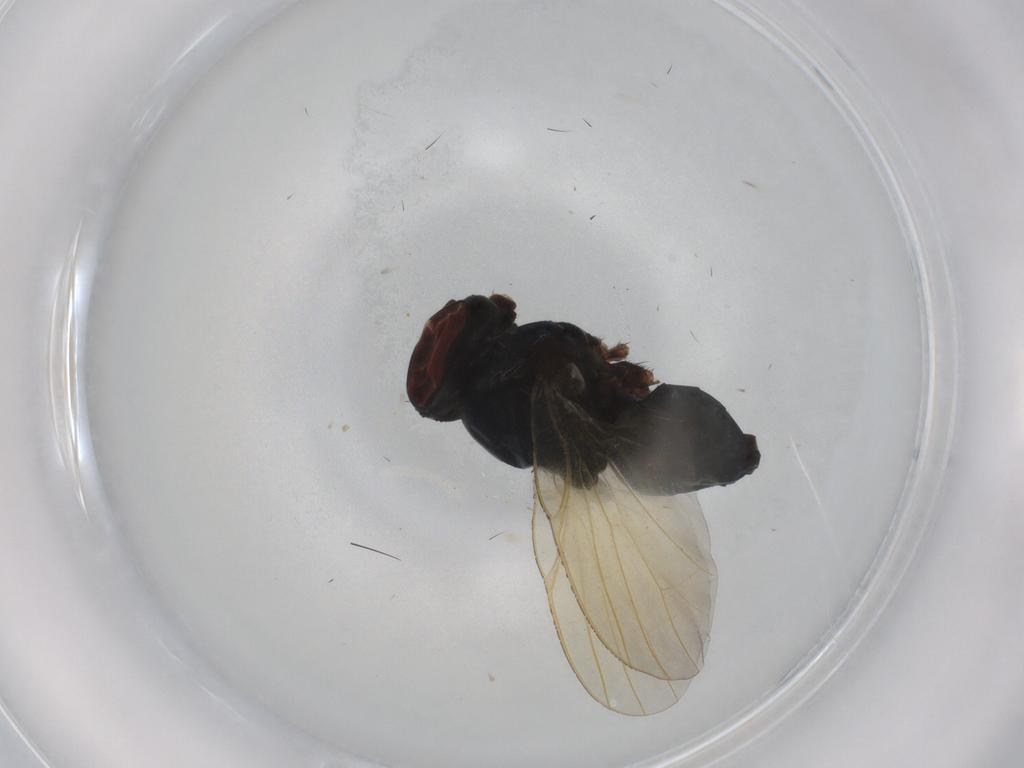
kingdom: Animalia
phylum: Arthropoda
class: Insecta
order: Diptera
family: Lonchaeidae
